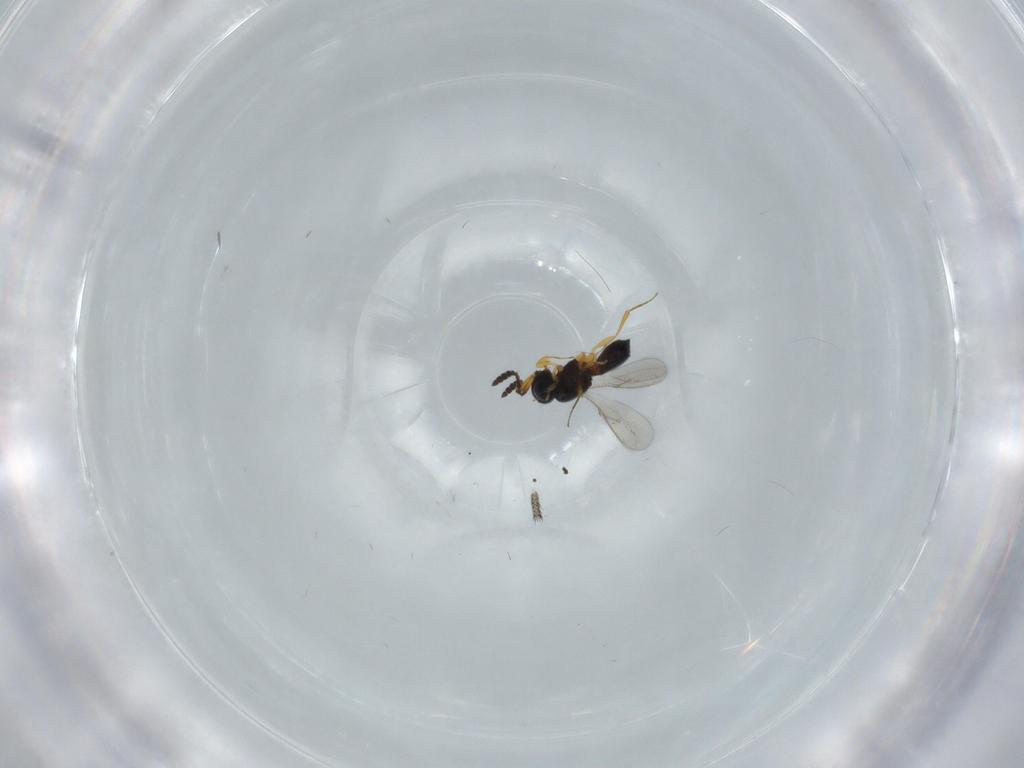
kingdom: Animalia
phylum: Arthropoda
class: Insecta
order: Hymenoptera
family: Scelionidae
